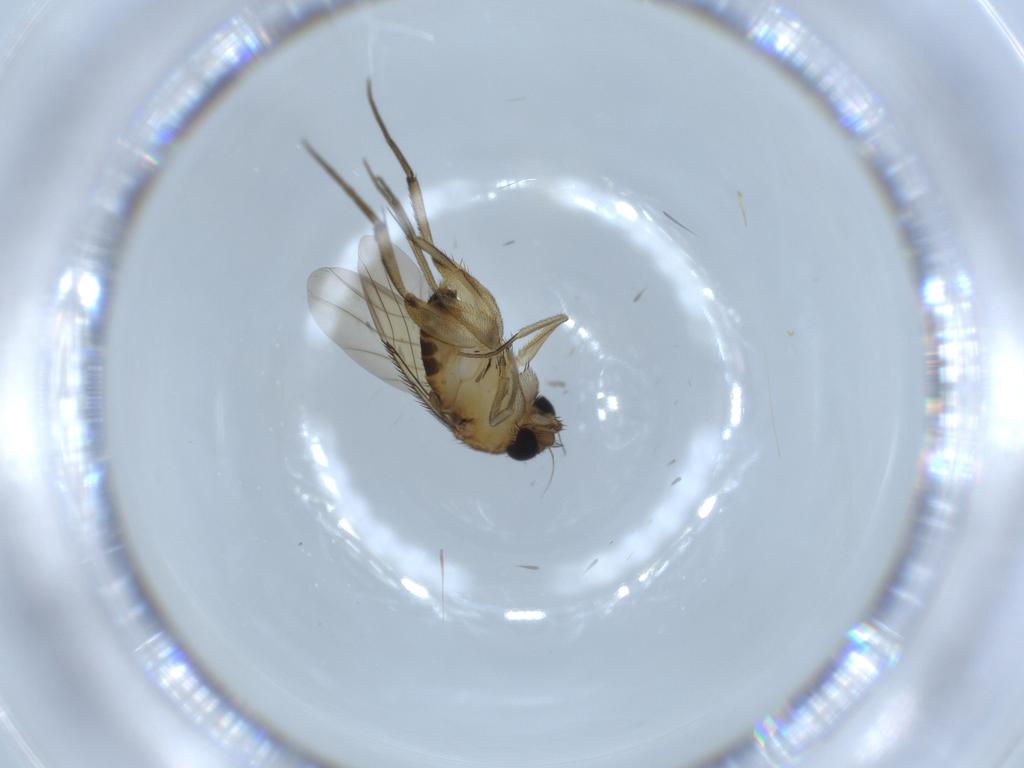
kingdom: Animalia
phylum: Arthropoda
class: Insecta
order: Diptera
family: Phoridae
